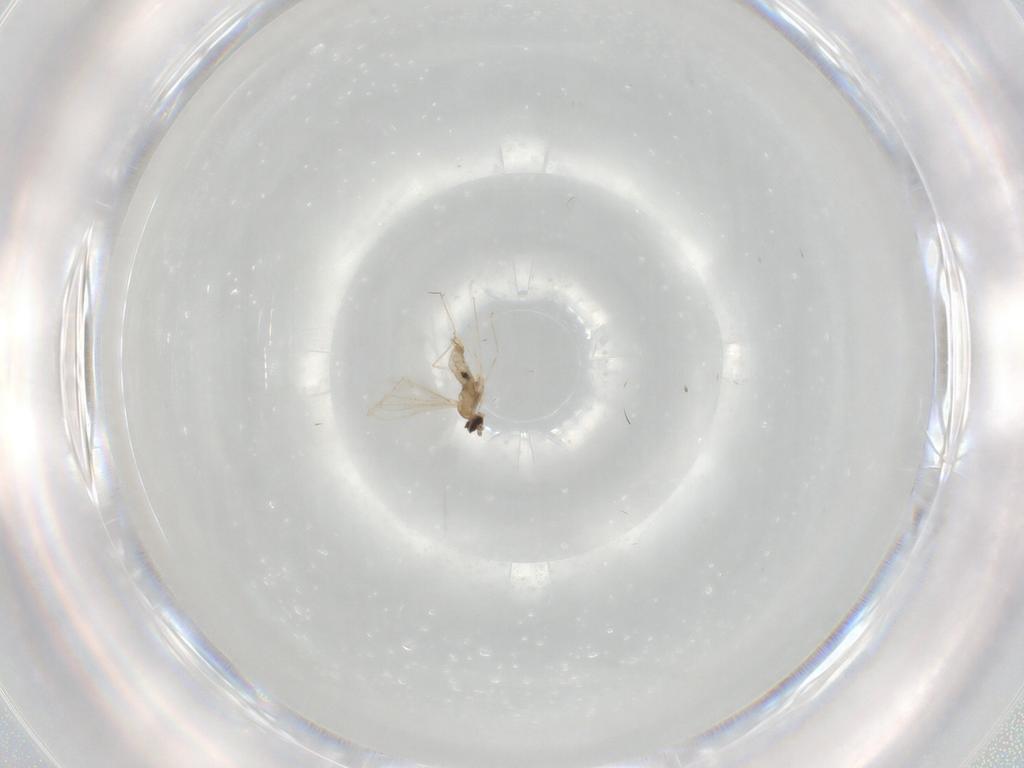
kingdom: Animalia
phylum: Arthropoda
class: Insecta
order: Diptera
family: Cecidomyiidae
